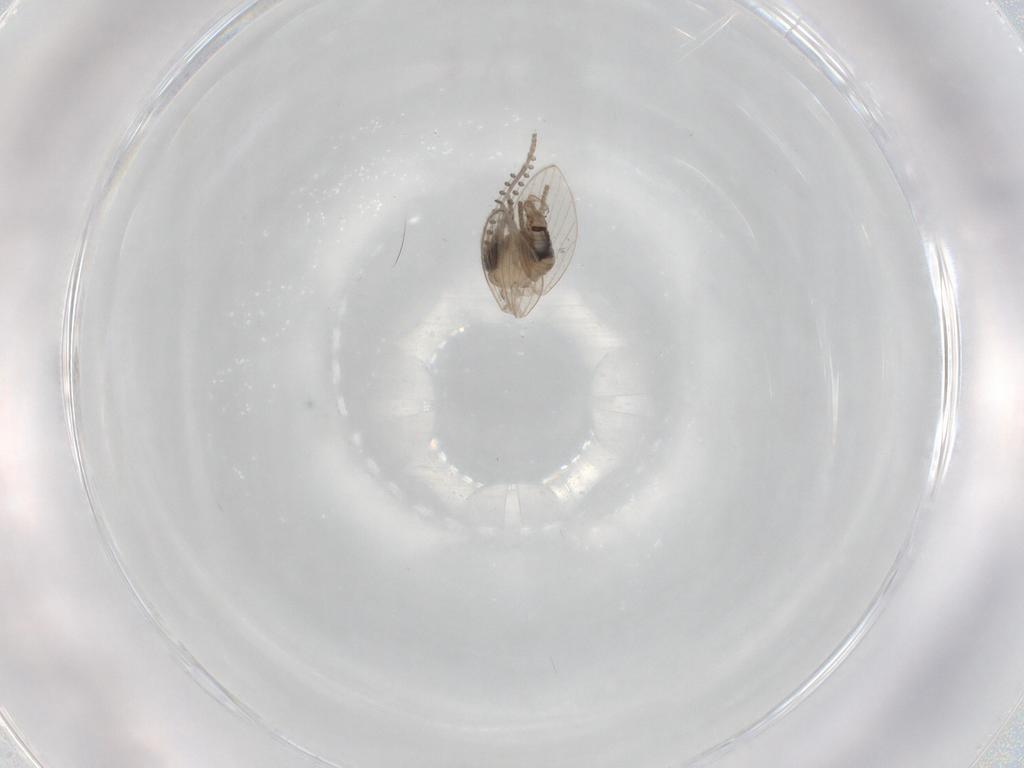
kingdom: Animalia
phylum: Arthropoda
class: Insecta
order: Diptera
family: Psychodidae
